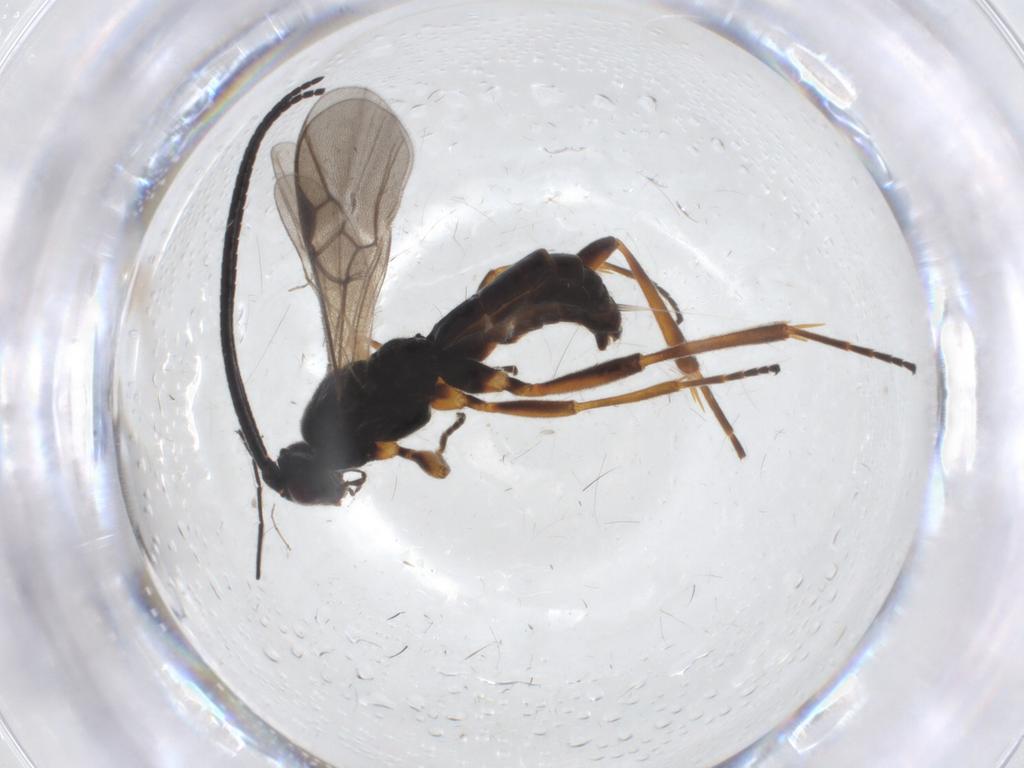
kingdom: Animalia
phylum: Arthropoda
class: Insecta
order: Hymenoptera
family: Braconidae
